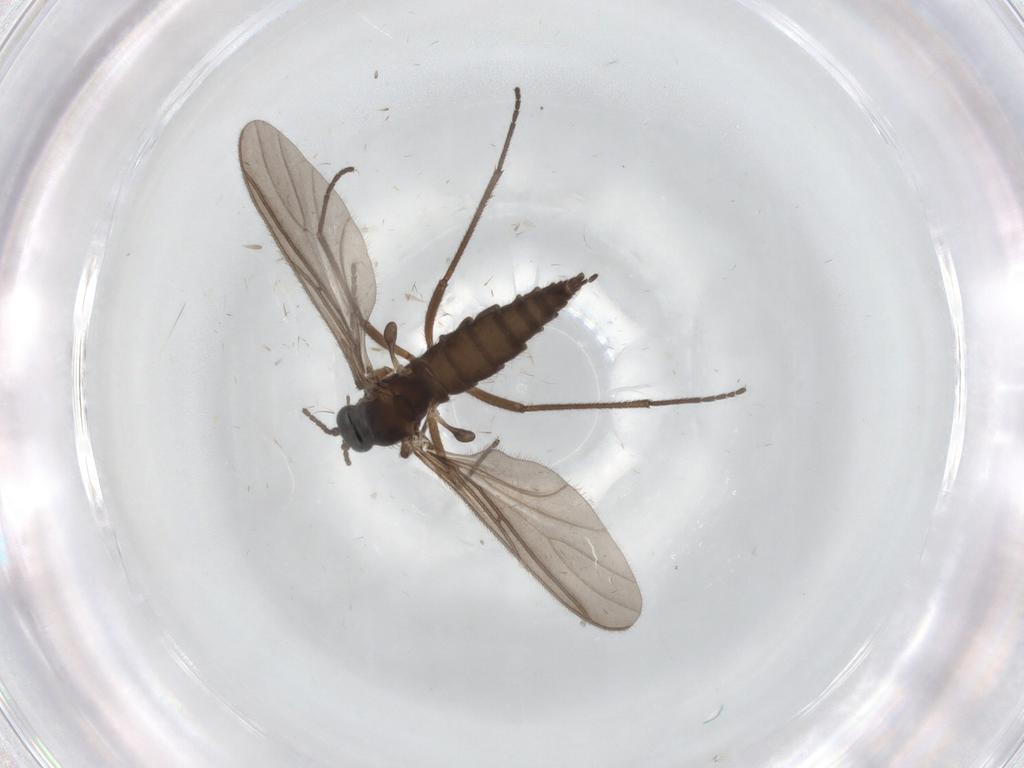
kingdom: Animalia
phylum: Arthropoda
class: Insecta
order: Diptera
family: Sciaridae
